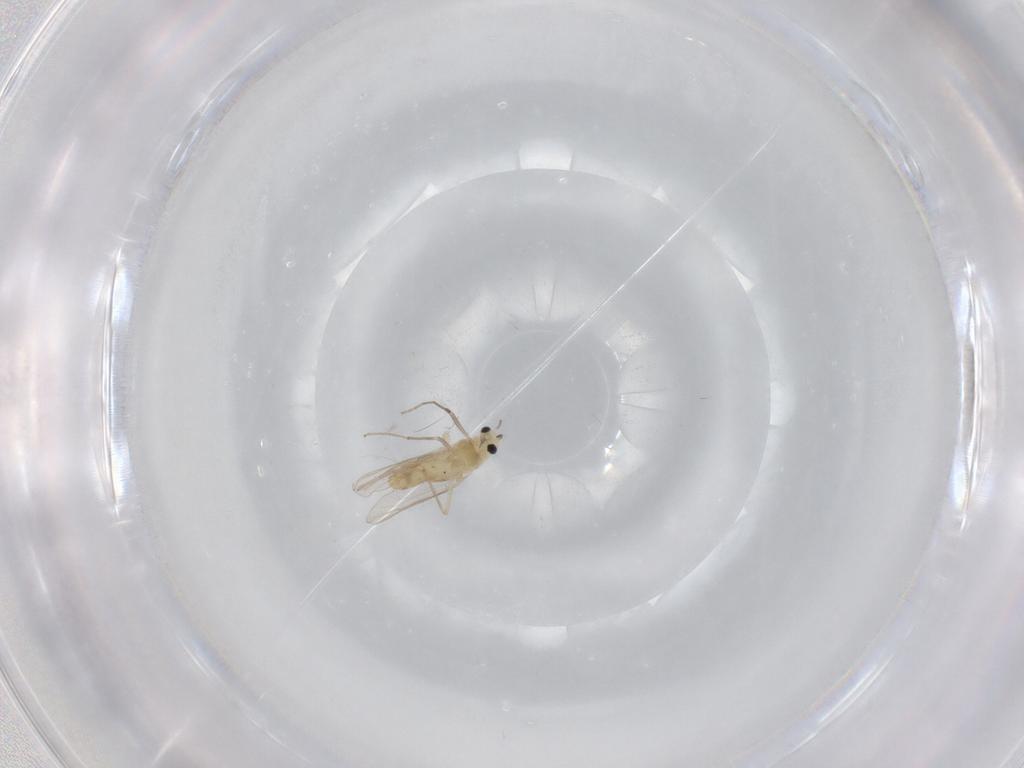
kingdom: Animalia
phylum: Arthropoda
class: Insecta
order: Diptera
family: Chironomidae
